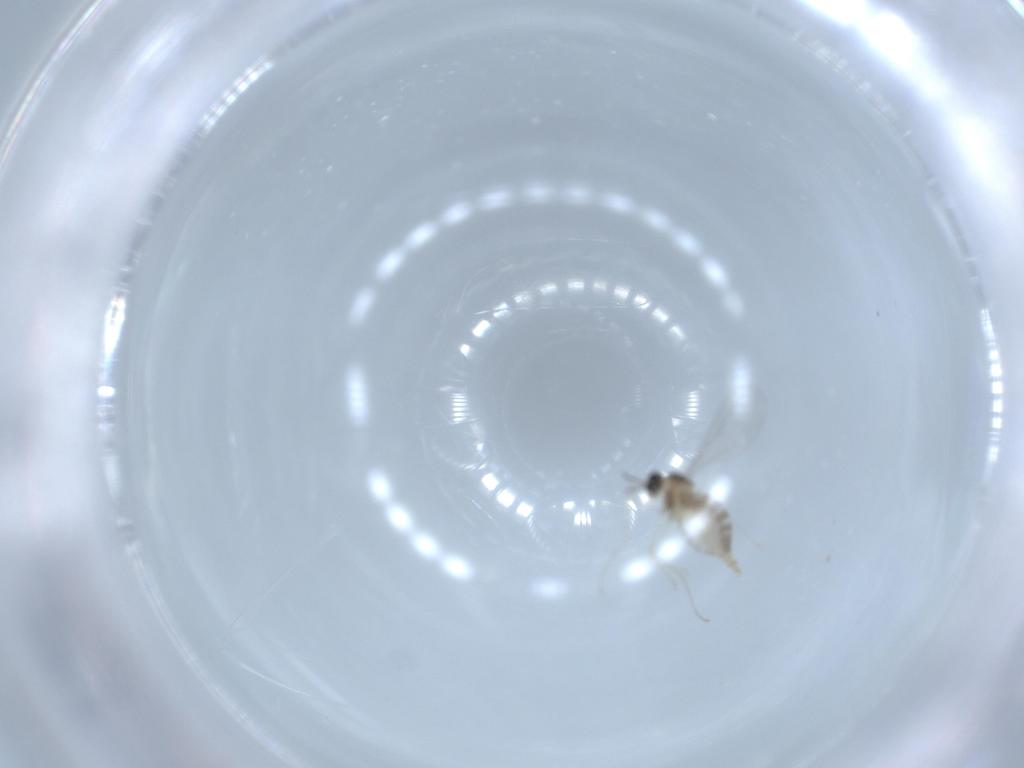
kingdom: Animalia
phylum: Arthropoda
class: Insecta
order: Diptera
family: Cecidomyiidae
